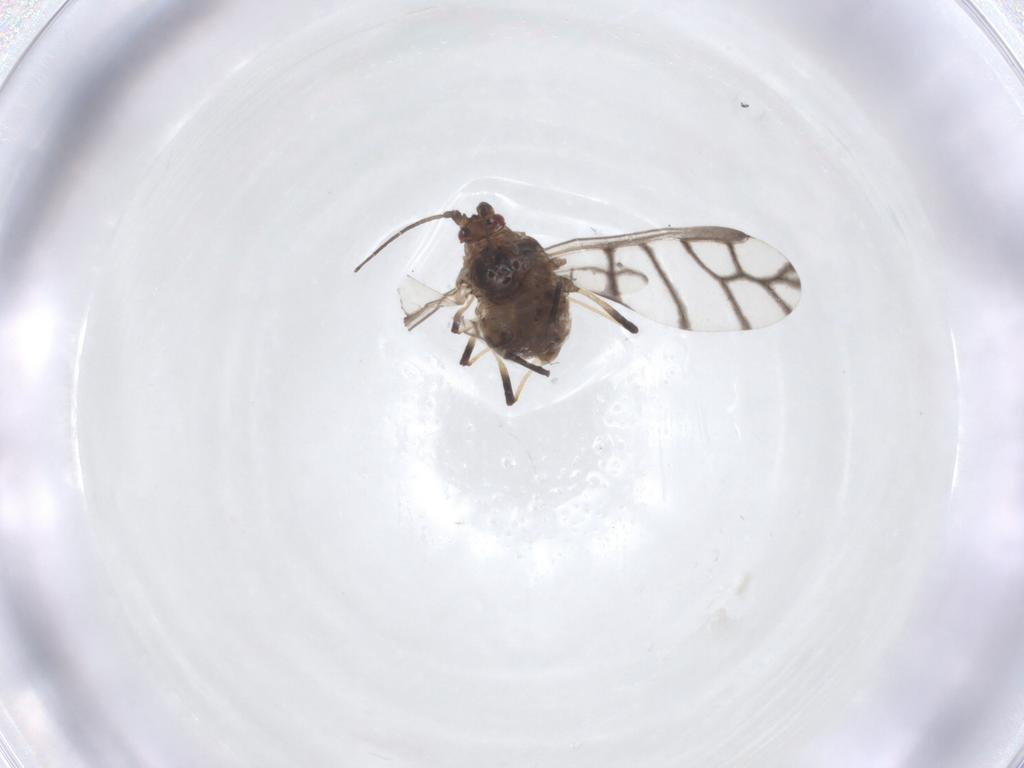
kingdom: Animalia
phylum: Arthropoda
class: Insecta
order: Hemiptera
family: Aphididae
